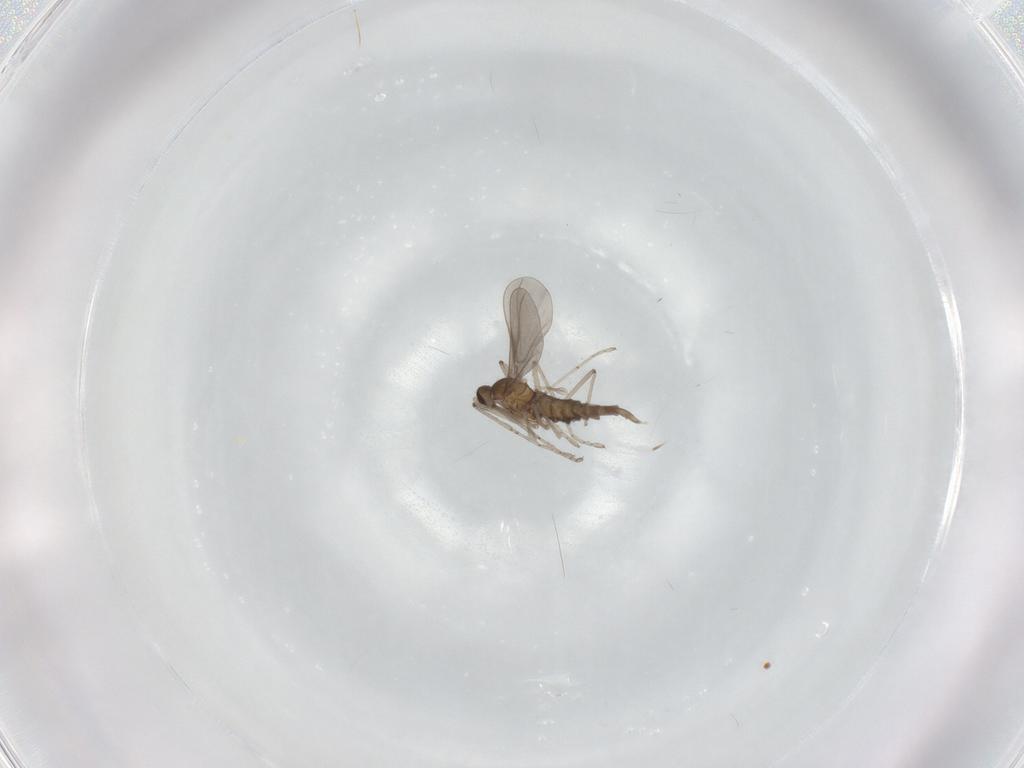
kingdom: Animalia
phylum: Arthropoda
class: Insecta
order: Diptera
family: Cecidomyiidae
